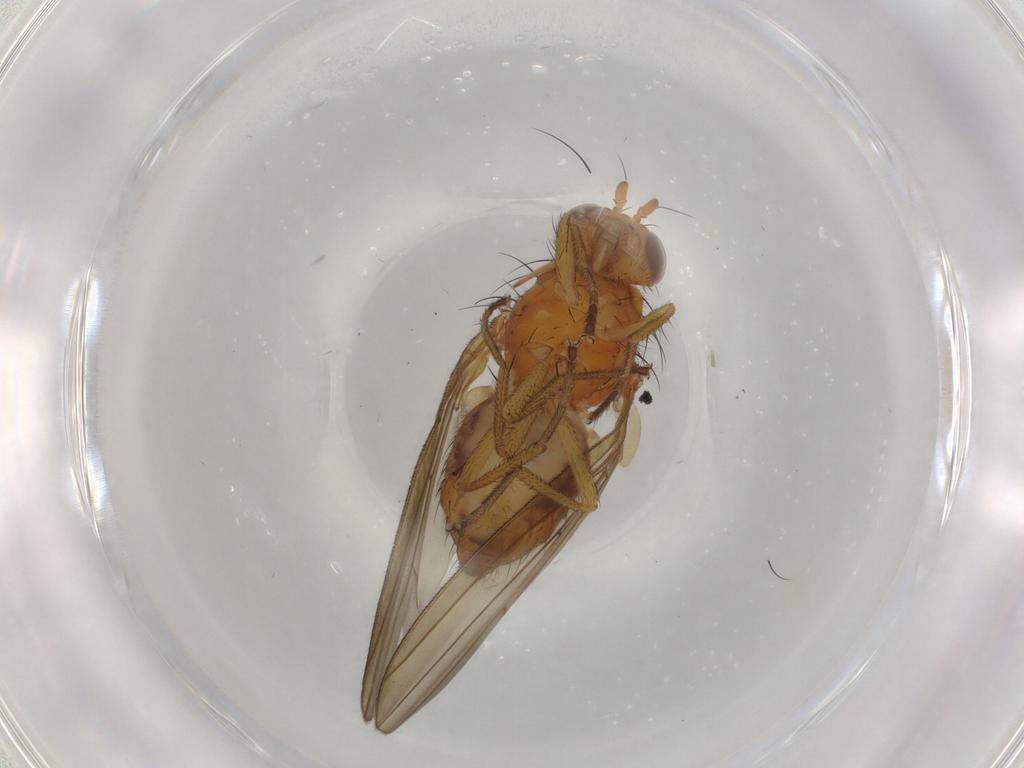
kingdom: Animalia
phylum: Arthropoda
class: Insecta
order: Diptera
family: Lauxaniidae
